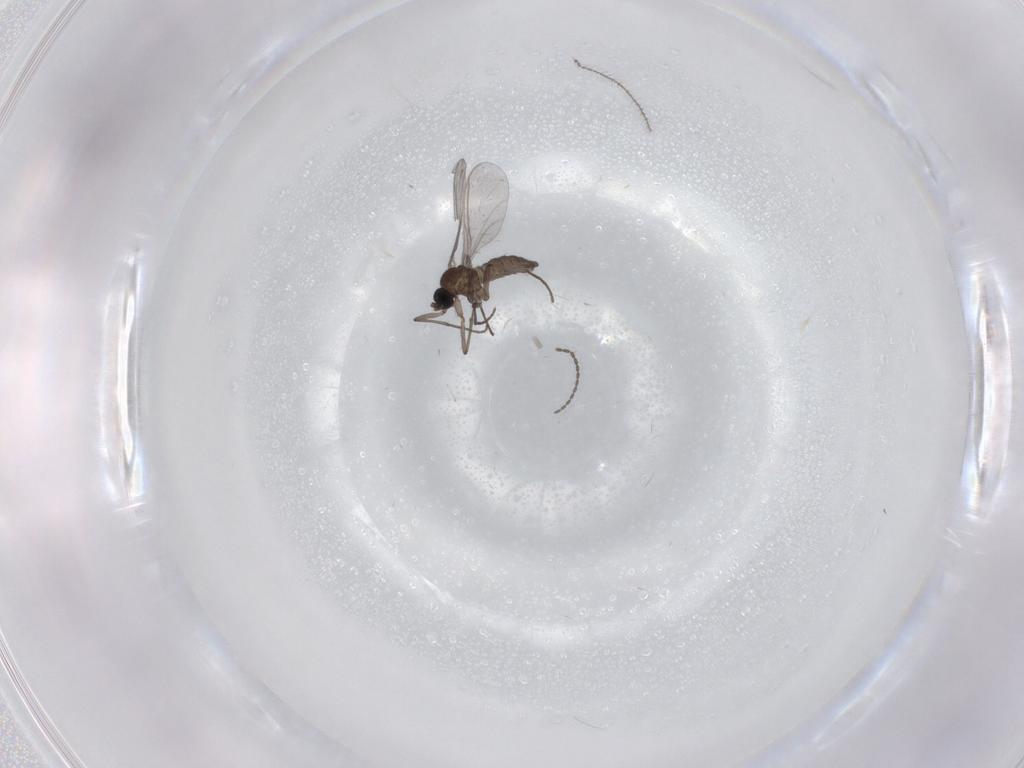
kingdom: Animalia
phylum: Arthropoda
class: Insecta
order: Diptera
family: Sciaridae
